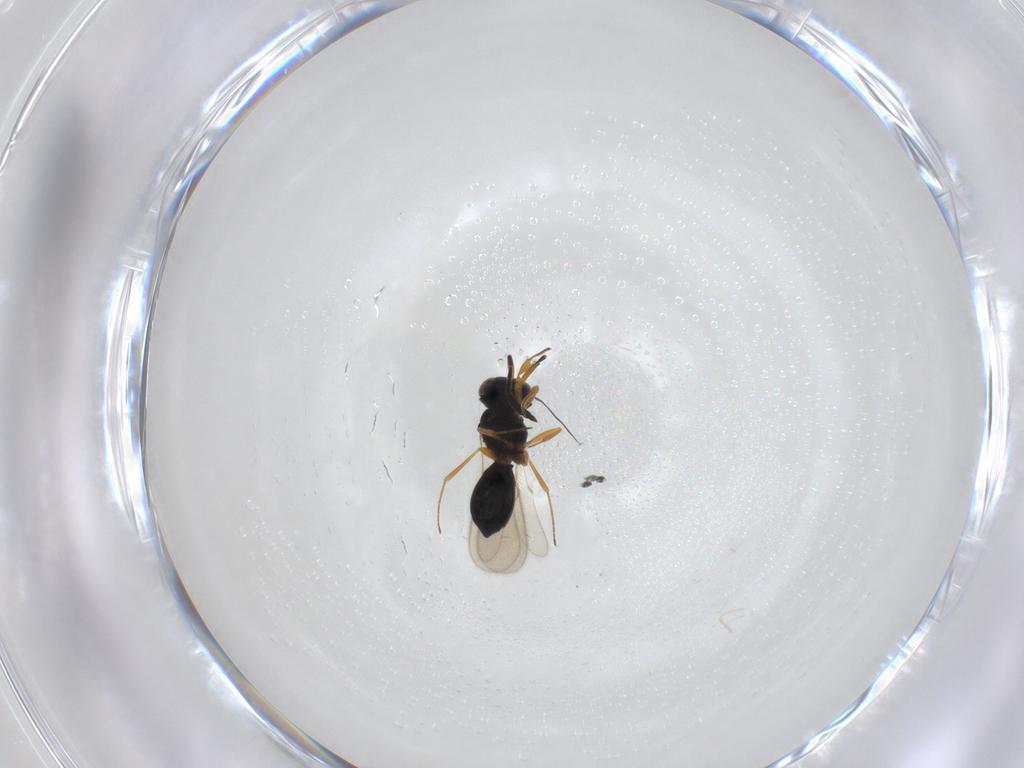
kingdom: Animalia
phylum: Arthropoda
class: Insecta
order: Hymenoptera
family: Scelionidae
